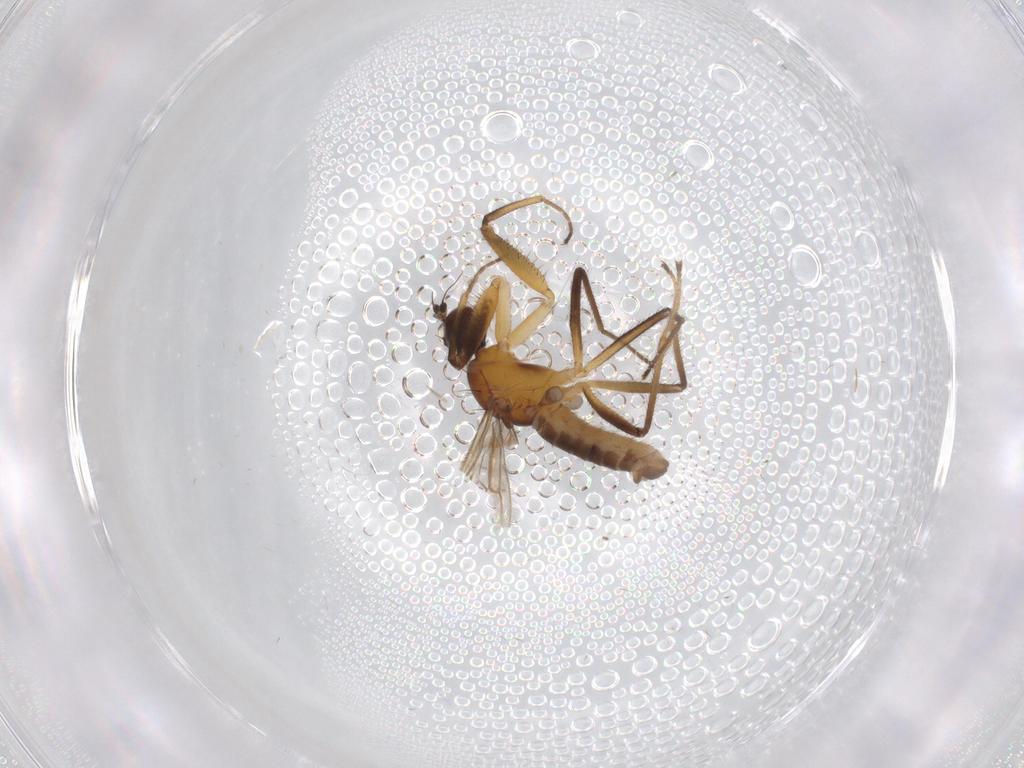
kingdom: Animalia
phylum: Arthropoda
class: Insecta
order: Diptera
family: Empididae
